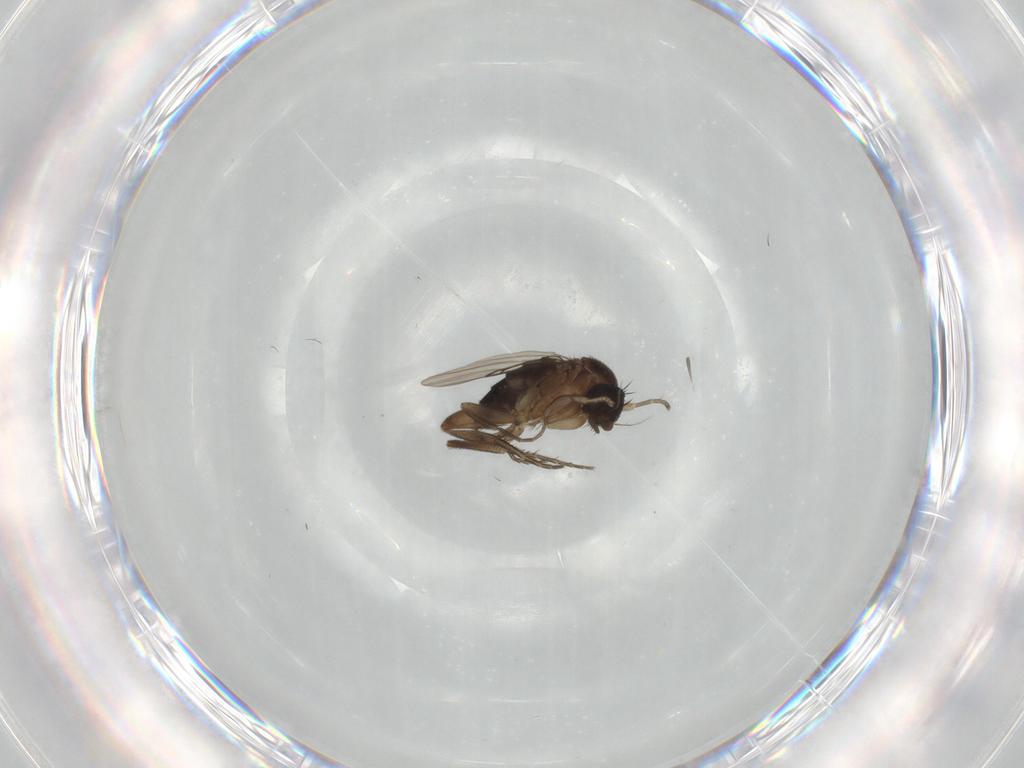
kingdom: Animalia
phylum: Arthropoda
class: Insecta
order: Diptera
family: Phoridae
